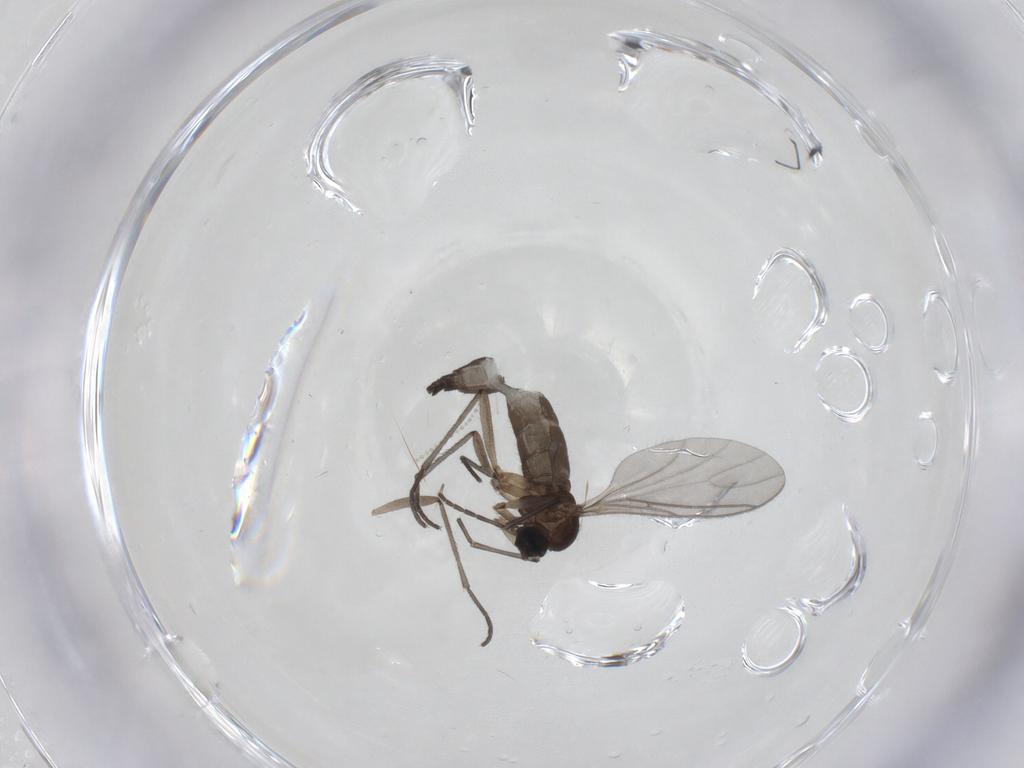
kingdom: Animalia
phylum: Arthropoda
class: Insecta
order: Diptera
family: Sciaridae
